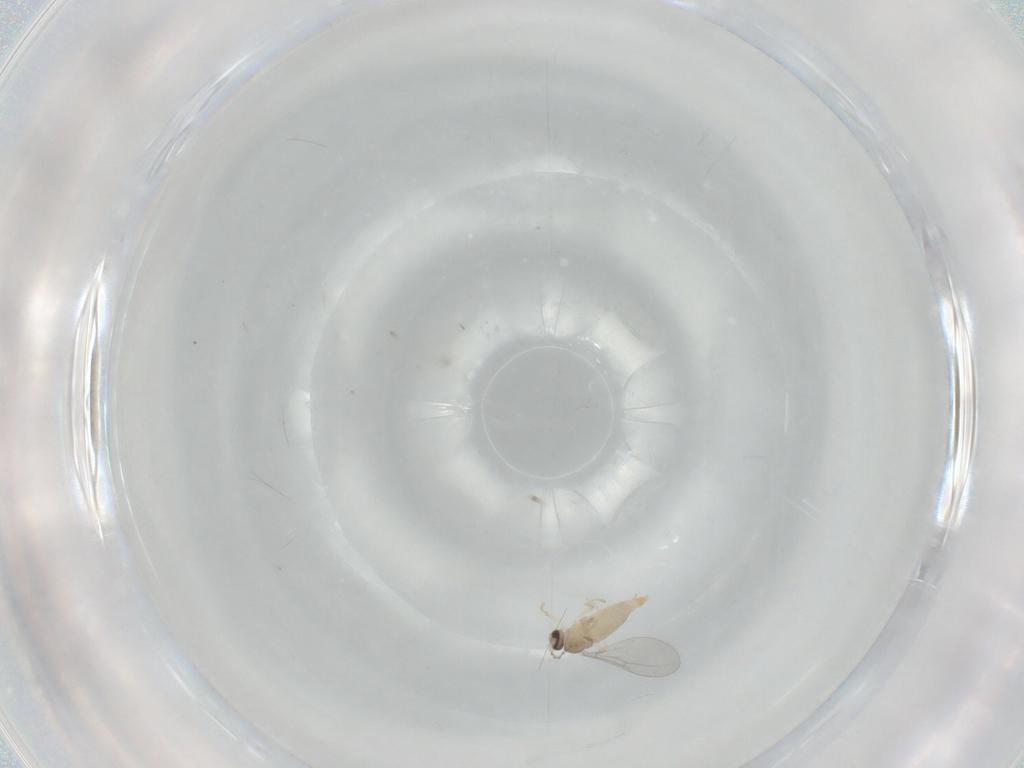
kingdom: Animalia
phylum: Arthropoda
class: Insecta
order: Diptera
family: Cecidomyiidae
